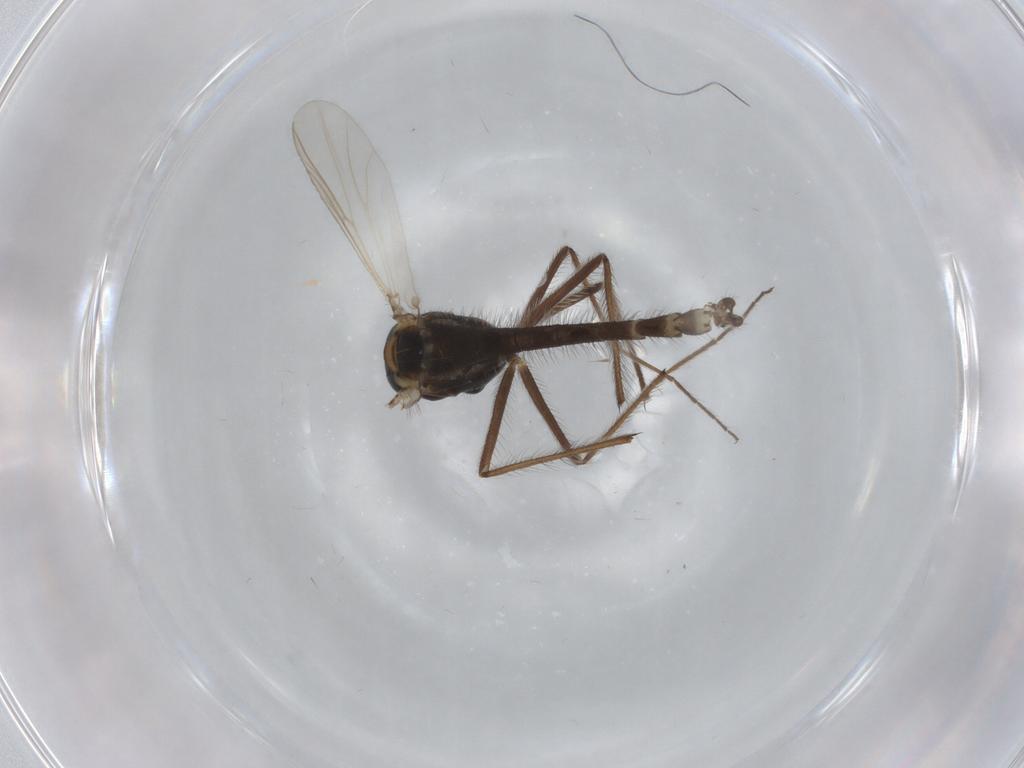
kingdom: Animalia
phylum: Arthropoda
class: Insecta
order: Diptera
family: Chironomidae
